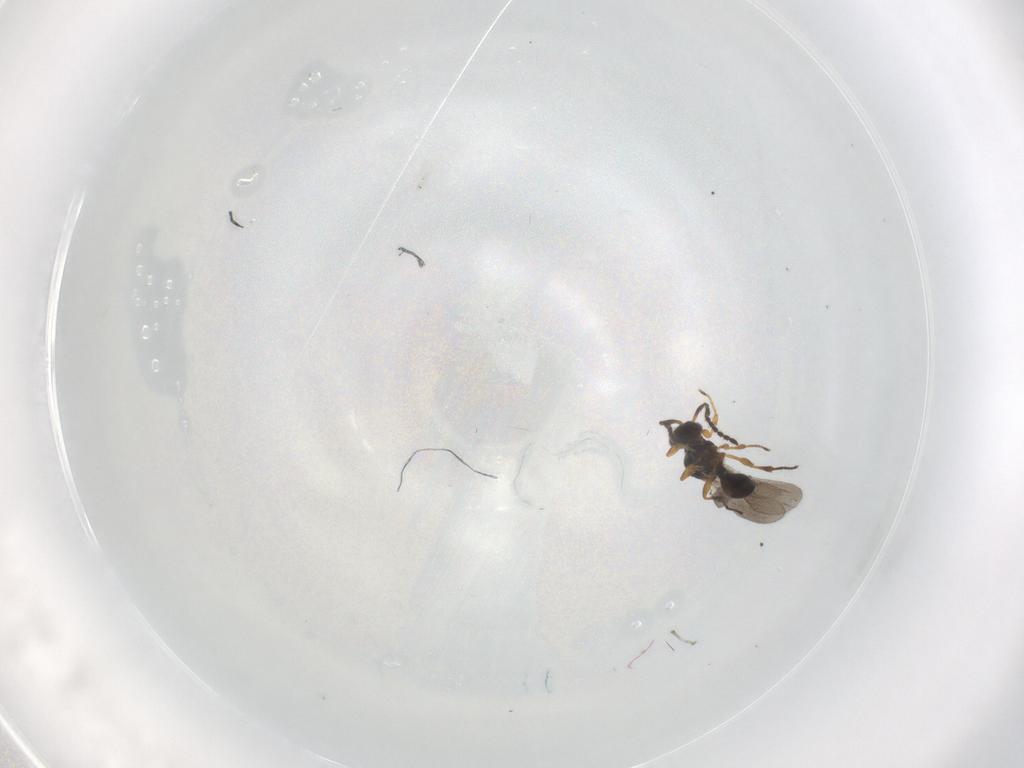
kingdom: Animalia
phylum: Arthropoda
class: Insecta
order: Hymenoptera
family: Platygastridae
